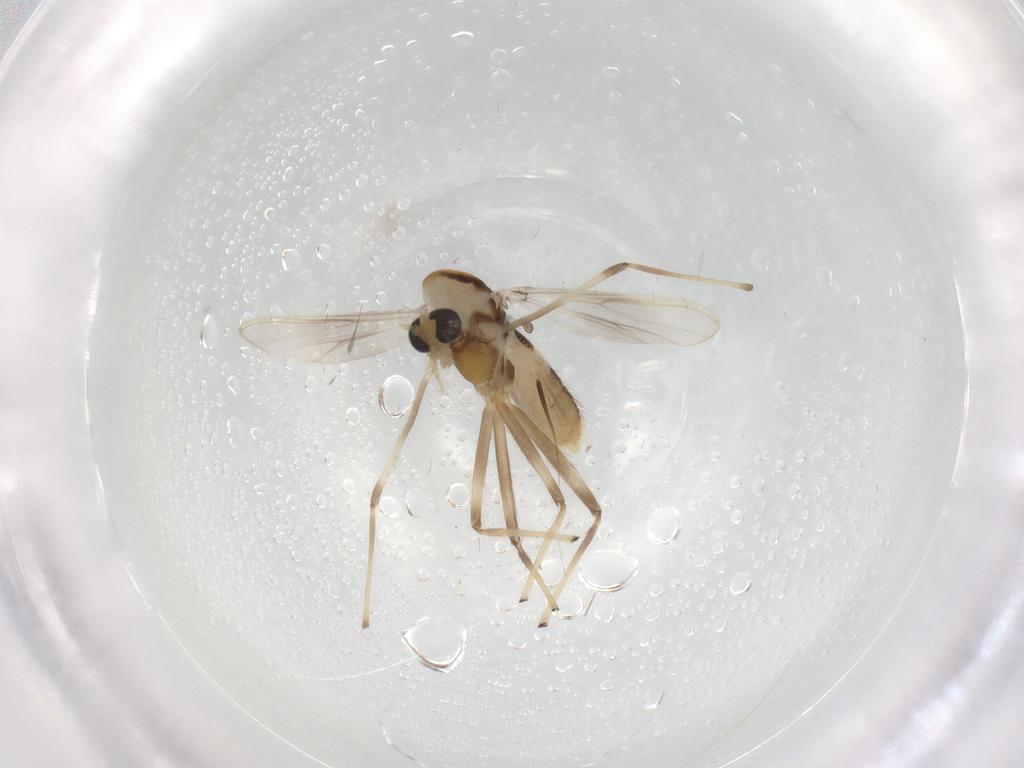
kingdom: Animalia
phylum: Arthropoda
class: Insecta
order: Diptera
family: Chironomidae
